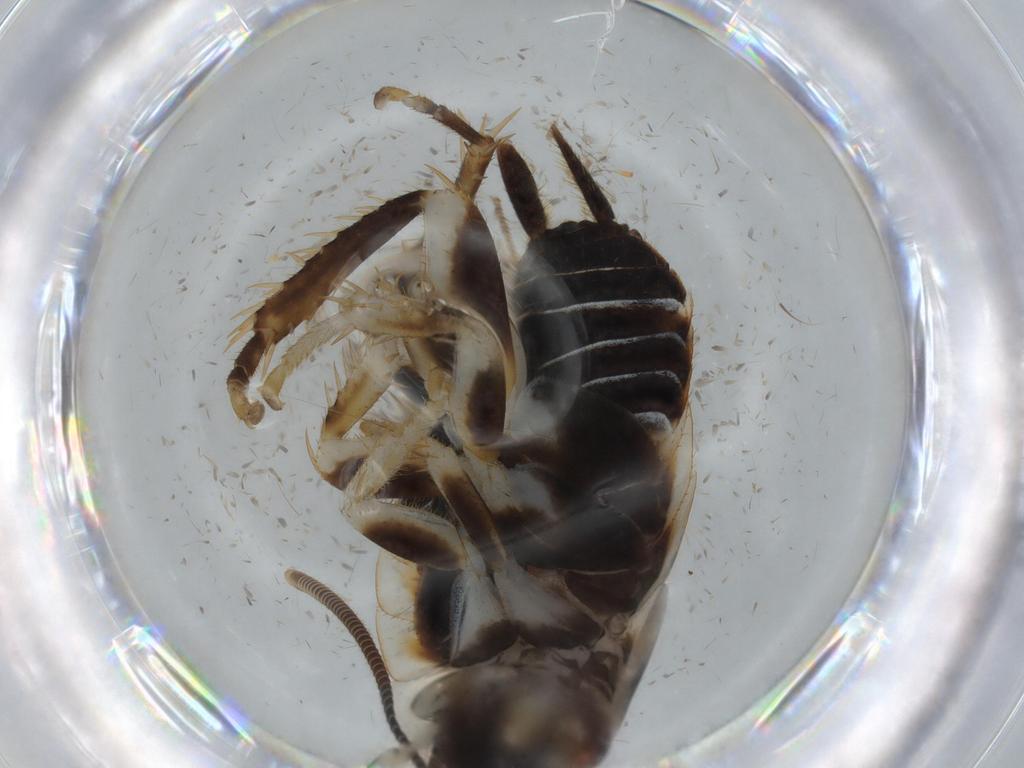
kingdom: Animalia
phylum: Arthropoda
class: Insecta
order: Blattodea
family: Ectobiidae
